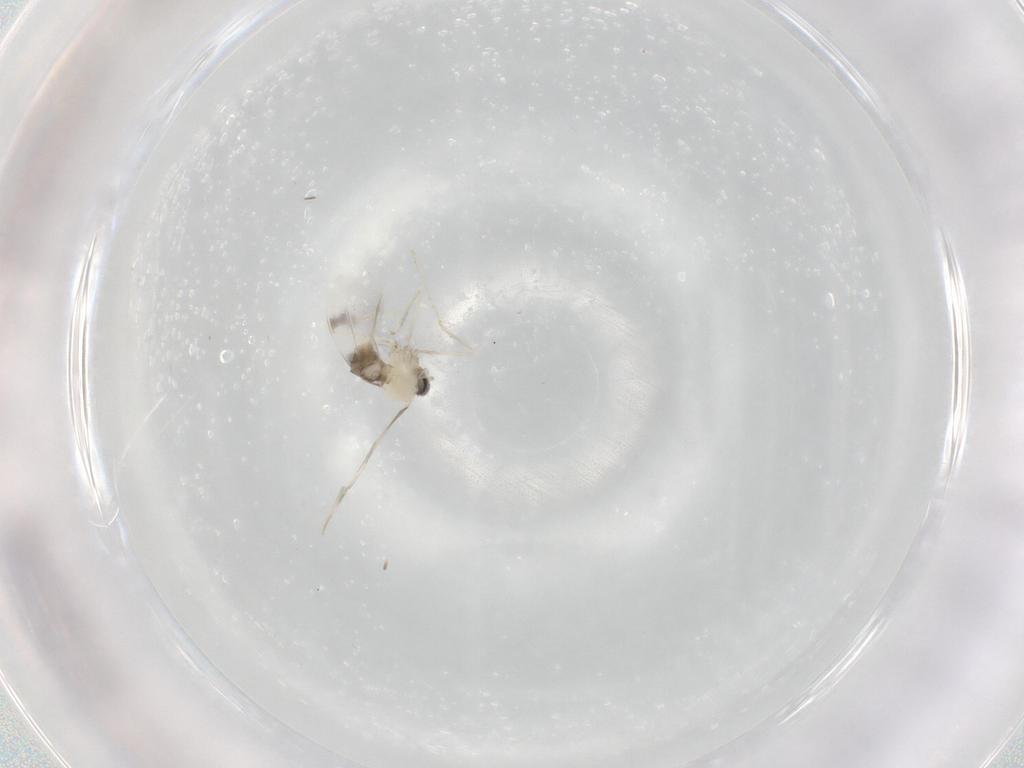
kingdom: Animalia
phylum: Arthropoda
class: Insecta
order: Diptera
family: Cecidomyiidae
